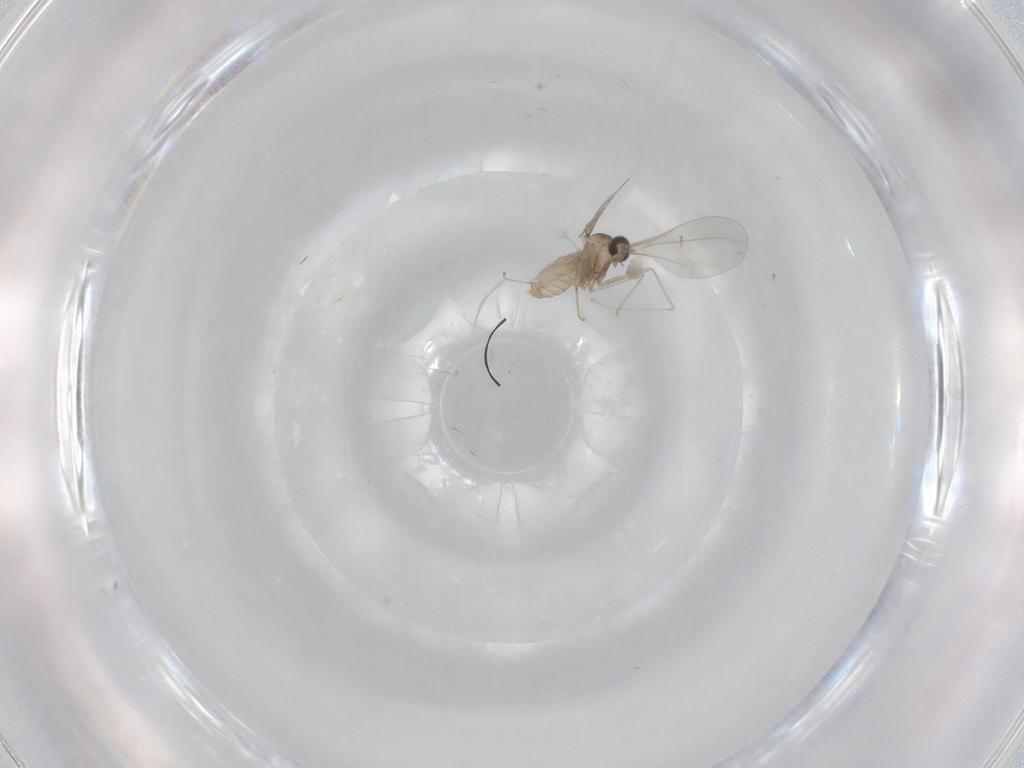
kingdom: Animalia
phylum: Arthropoda
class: Insecta
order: Diptera
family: Cecidomyiidae
